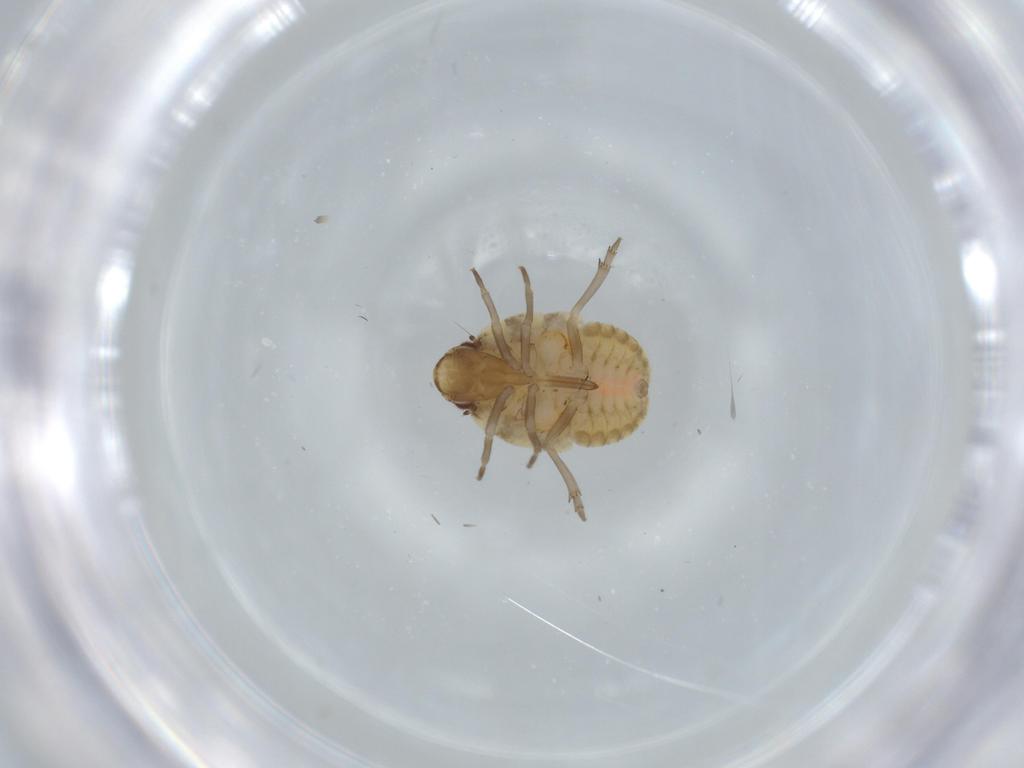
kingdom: Animalia
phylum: Arthropoda
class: Insecta
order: Hemiptera
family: Flatidae
